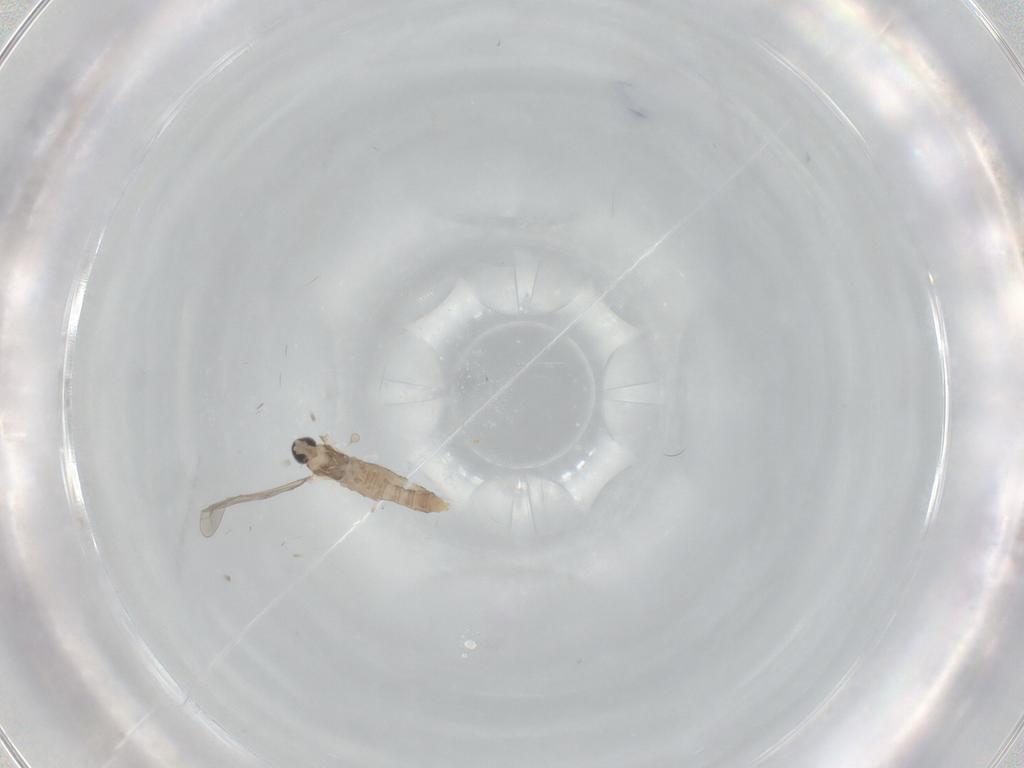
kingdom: Animalia
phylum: Arthropoda
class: Insecta
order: Diptera
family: Cecidomyiidae
